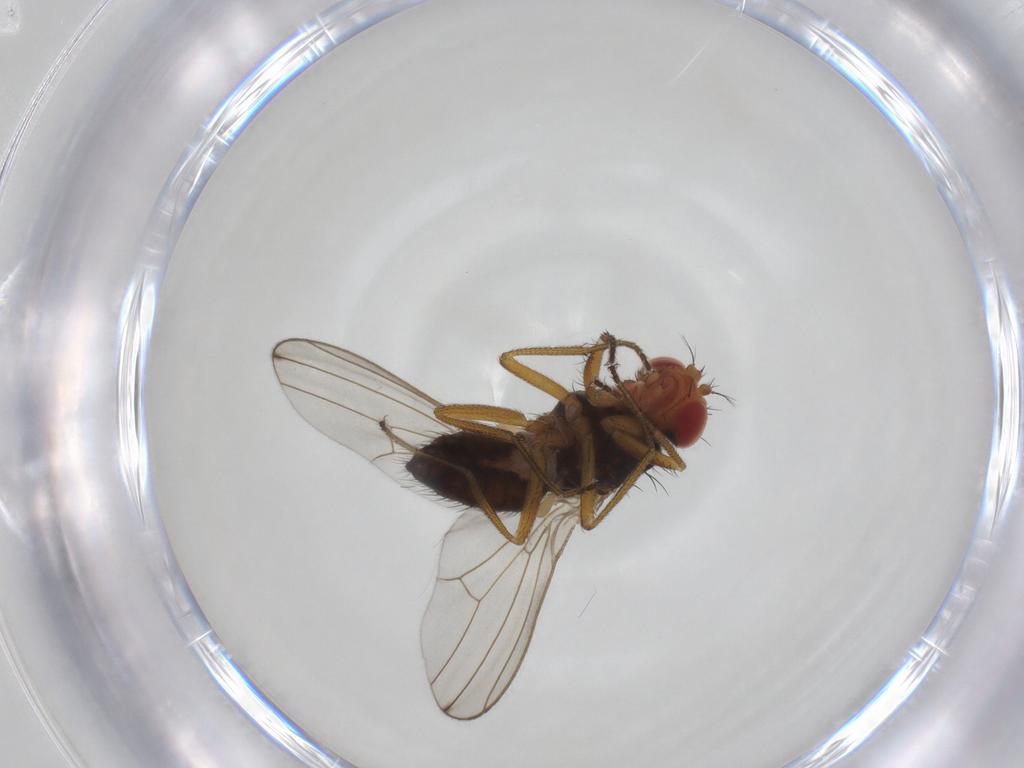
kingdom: Animalia
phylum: Arthropoda
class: Insecta
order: Diptera
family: Drosophilidae
